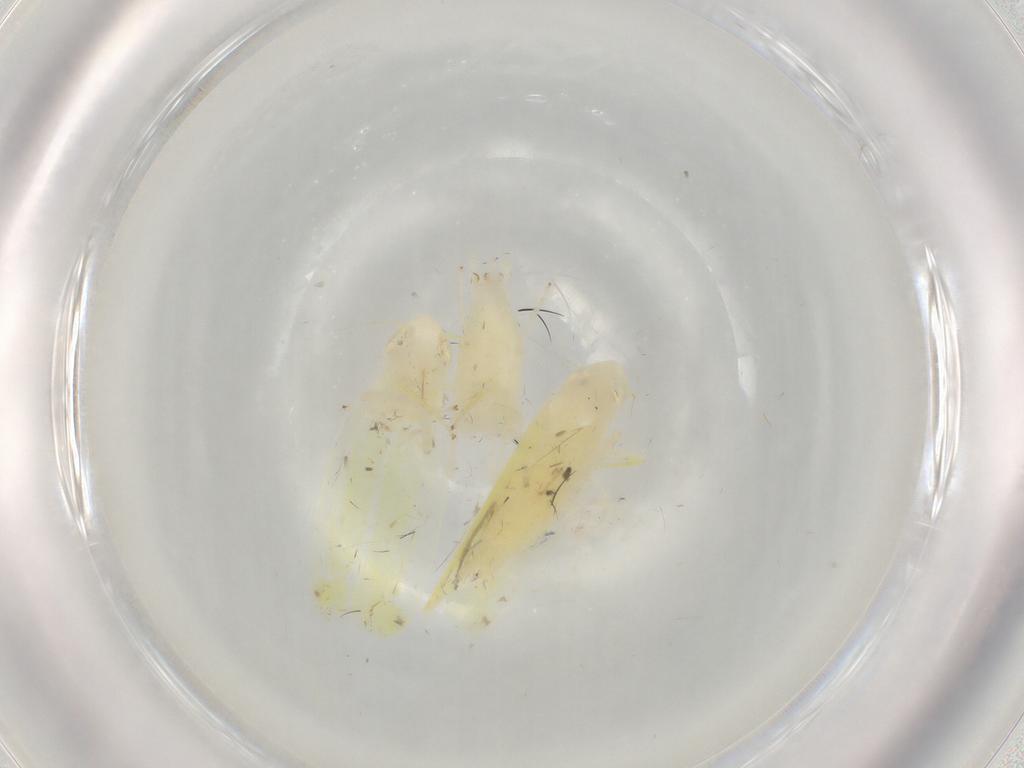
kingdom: Animalia
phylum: Arthropoda
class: Insecta
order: Hemiptera
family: Cicadellidae
